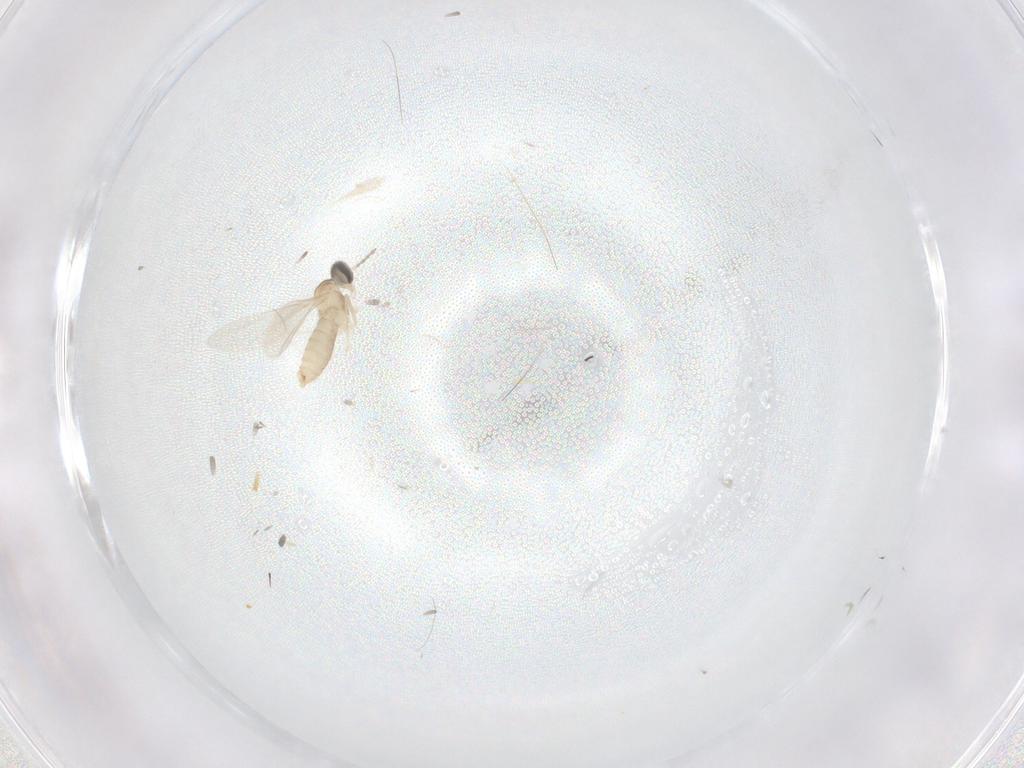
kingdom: Animalia
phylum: Arthropoda
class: Insecta
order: Diptera
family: Cecidomyiidae
